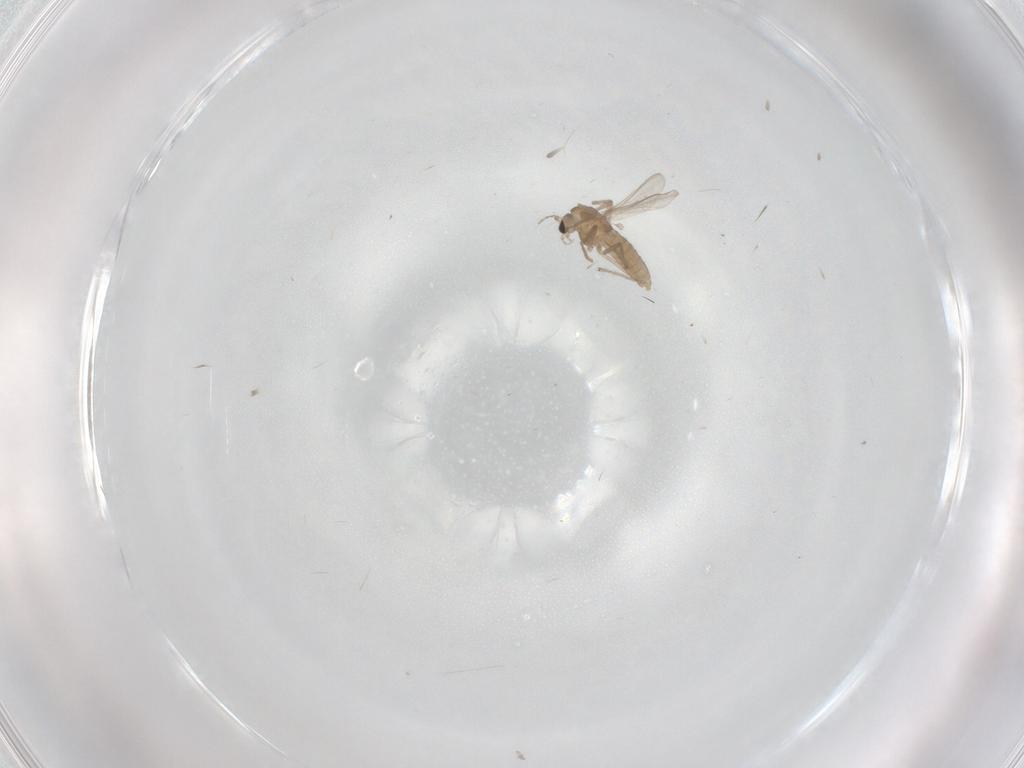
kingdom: Animalia
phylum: Arthropoda
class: Insecta
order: Diptera
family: Chironomidae
